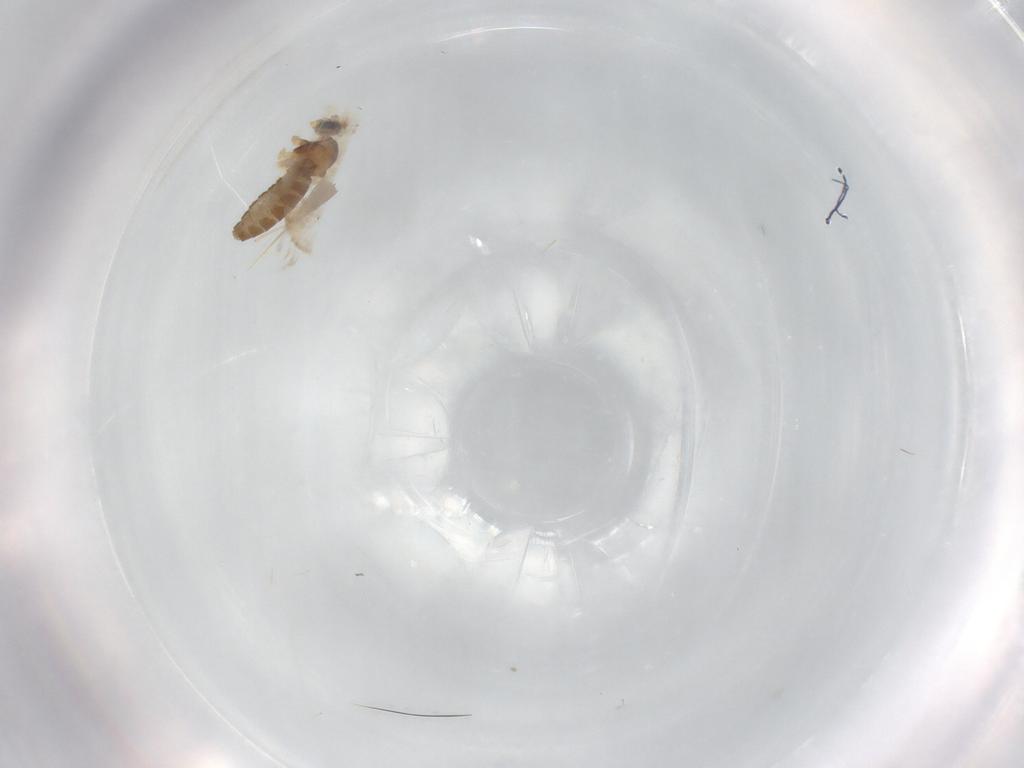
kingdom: Animalia
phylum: Arthropoda
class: Insecta
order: Diptera
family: Cecidomyiidae
